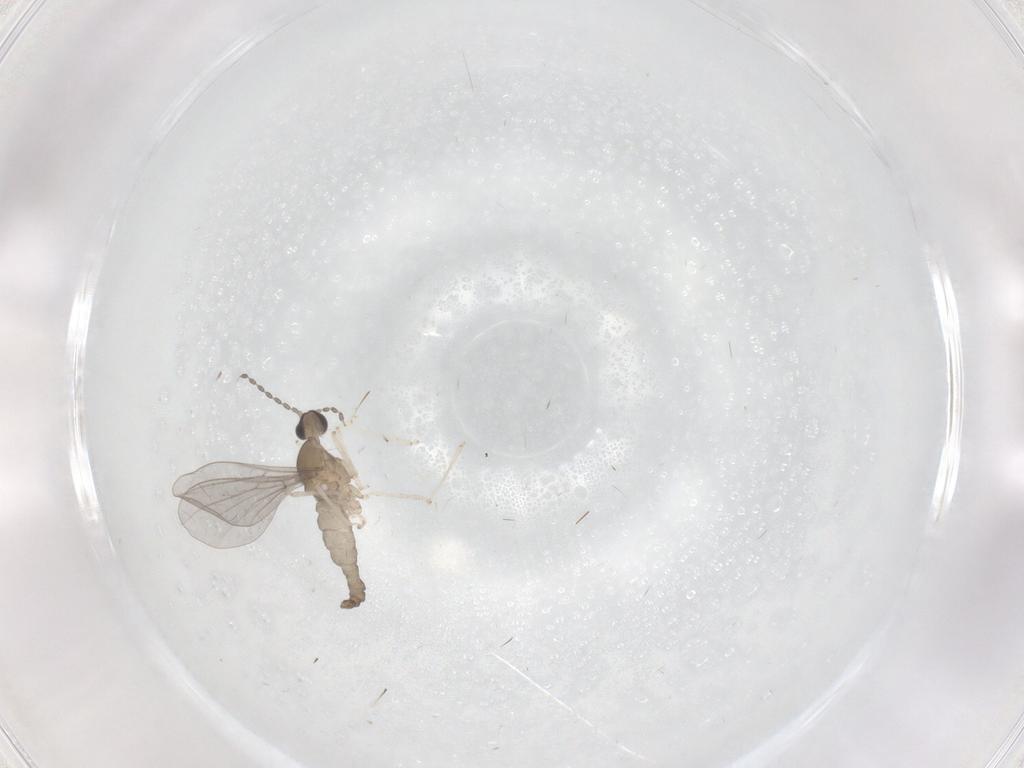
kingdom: Animalia
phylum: Arthropoda
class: Insecta
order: Diptera
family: Cecidomyiidae
